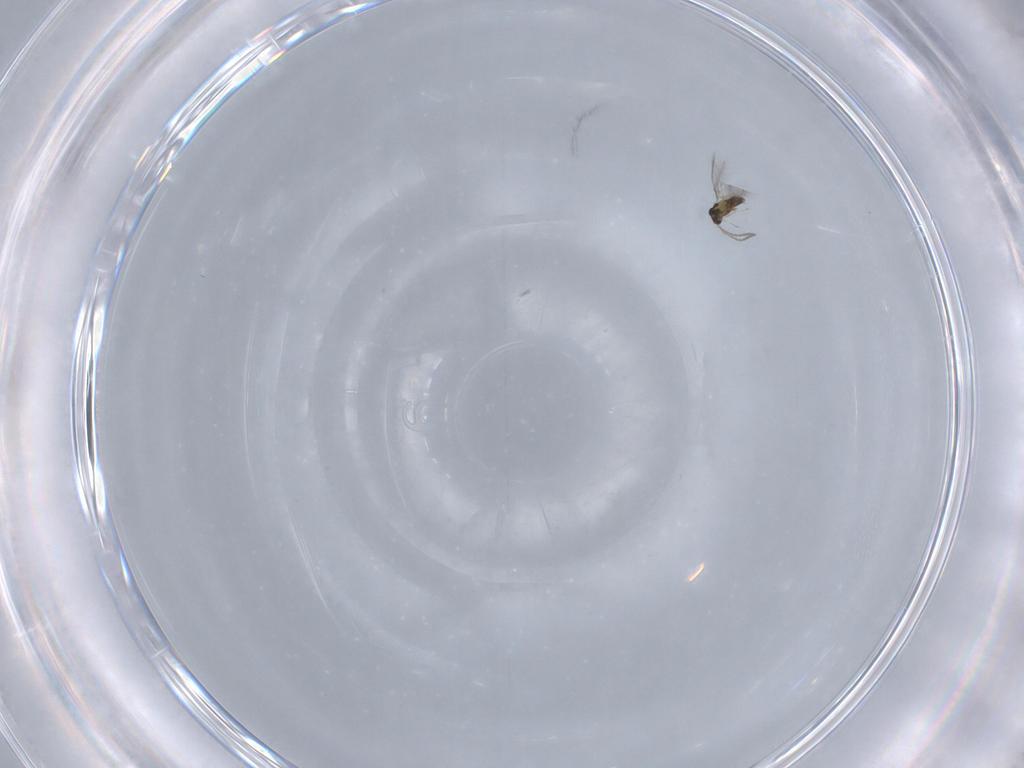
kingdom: Animalia
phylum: Arthropoda
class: Insecta
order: Hymenoptera
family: Mymaridae
